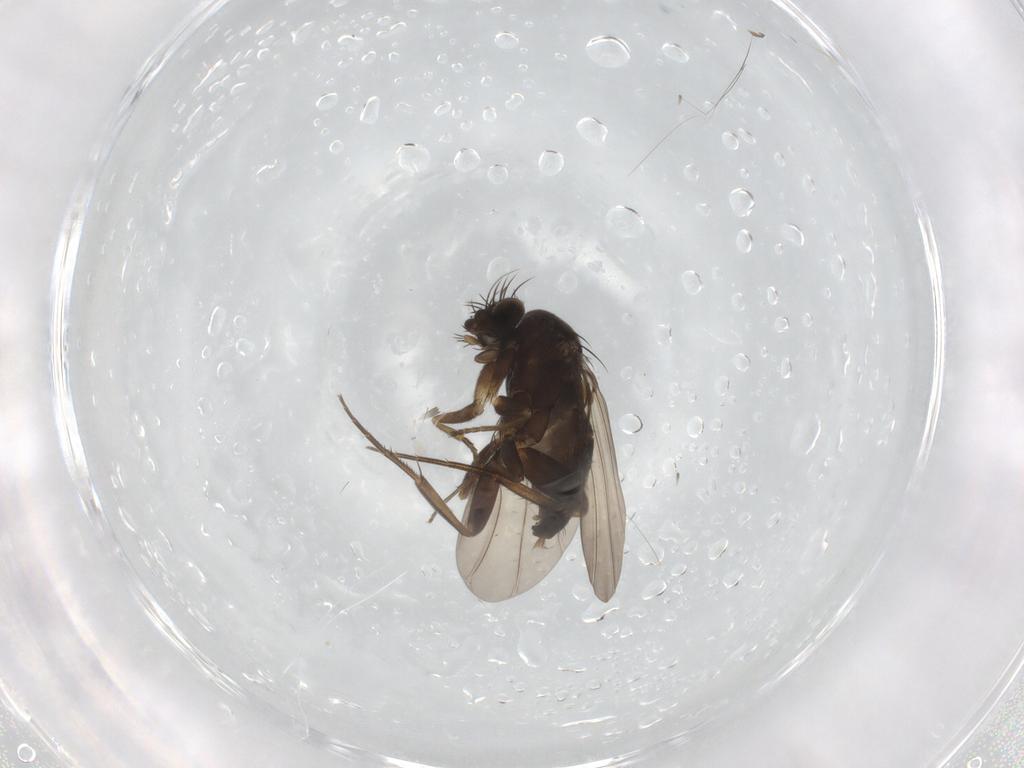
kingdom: Animalia
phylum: Arthropoda
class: Insecta
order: Diptera
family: Phoridae
